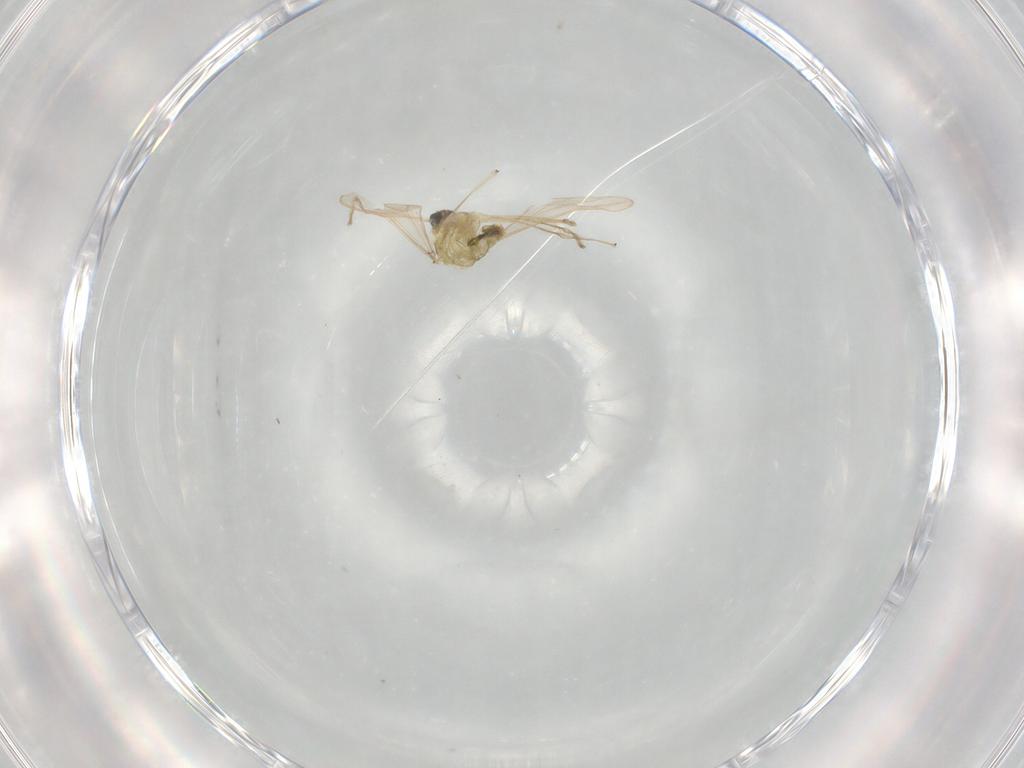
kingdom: Animalia
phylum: Arthropoda
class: Insecta
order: Diptera
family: Chironomidae
